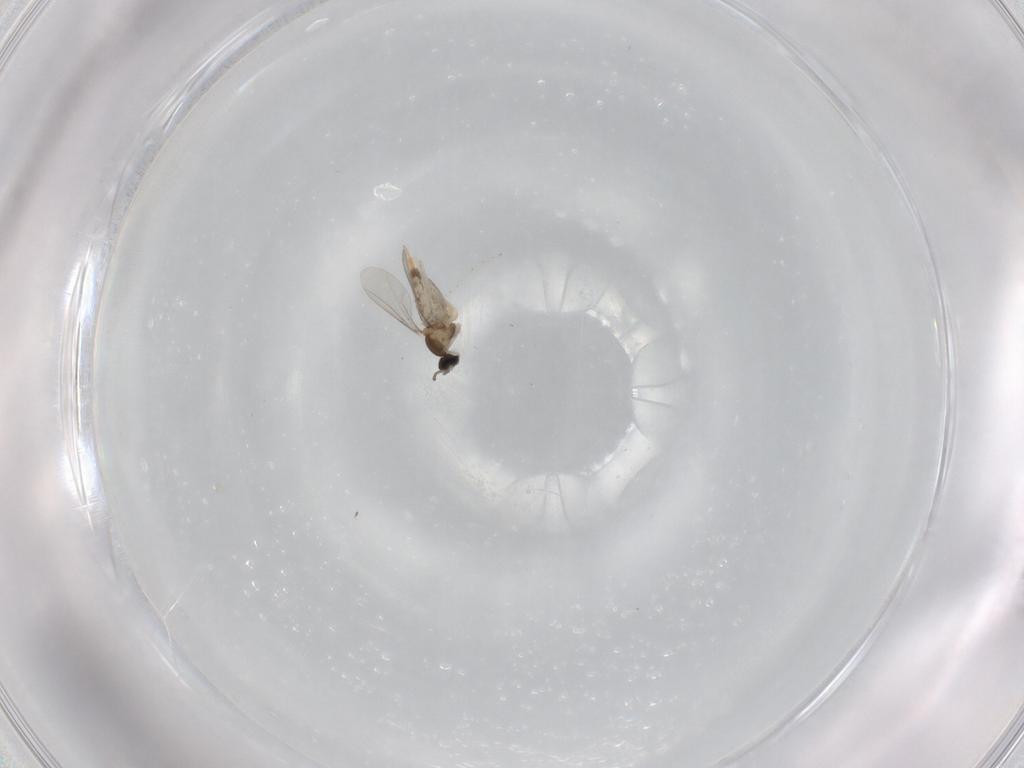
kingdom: Animalia
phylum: Arthropoda
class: Insecta
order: Diptera
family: Cecidomyiidae
